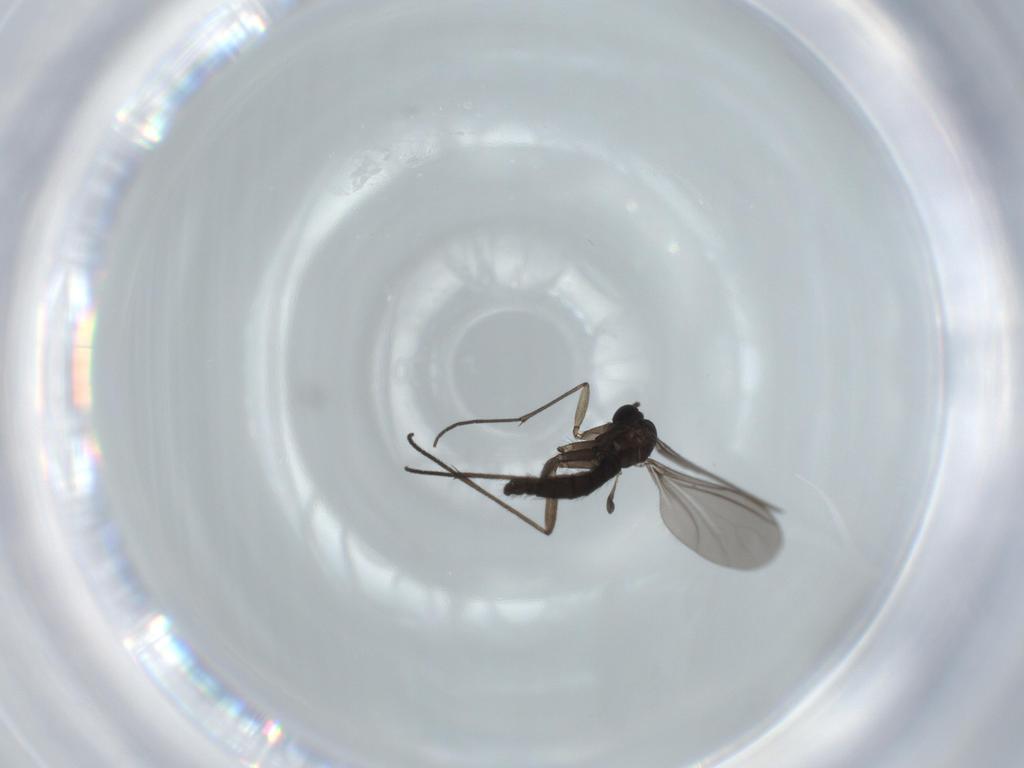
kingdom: Animalia
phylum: Arthropoda
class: Insecta
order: Diptera
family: Sciaridae
